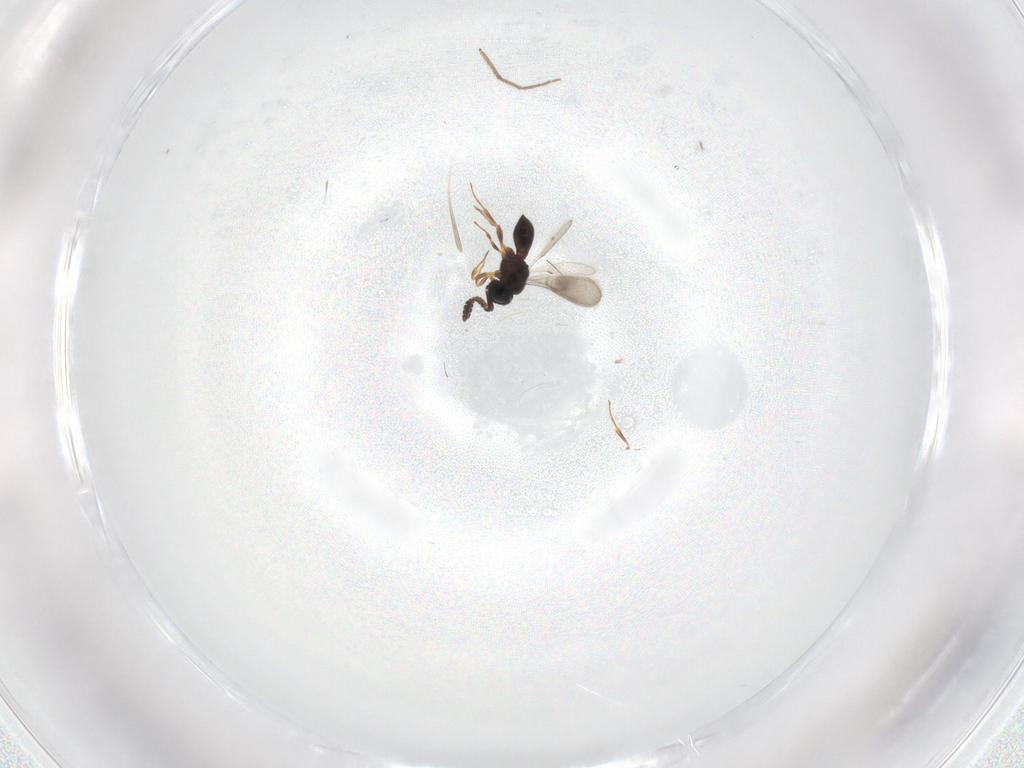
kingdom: Animalia
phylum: Arthropoda
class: Insecta
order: Hymenoptera
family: Scelionidae
